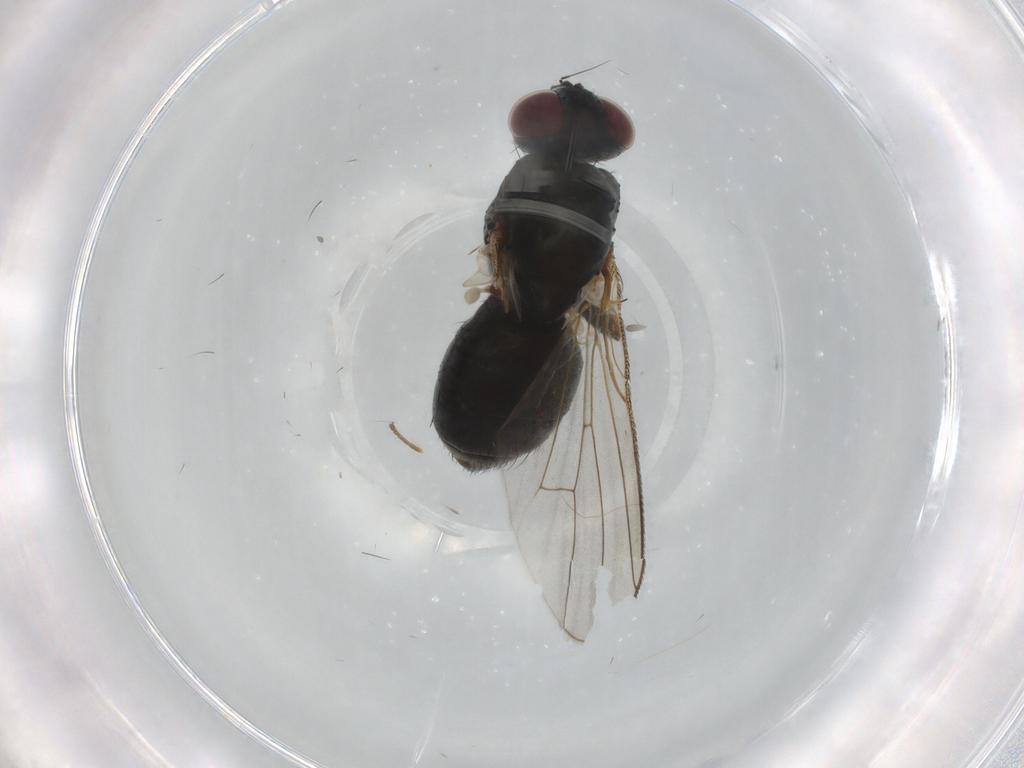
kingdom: Animalia
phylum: Arthropoda
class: Insecta
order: Diptera
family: Muscidae
